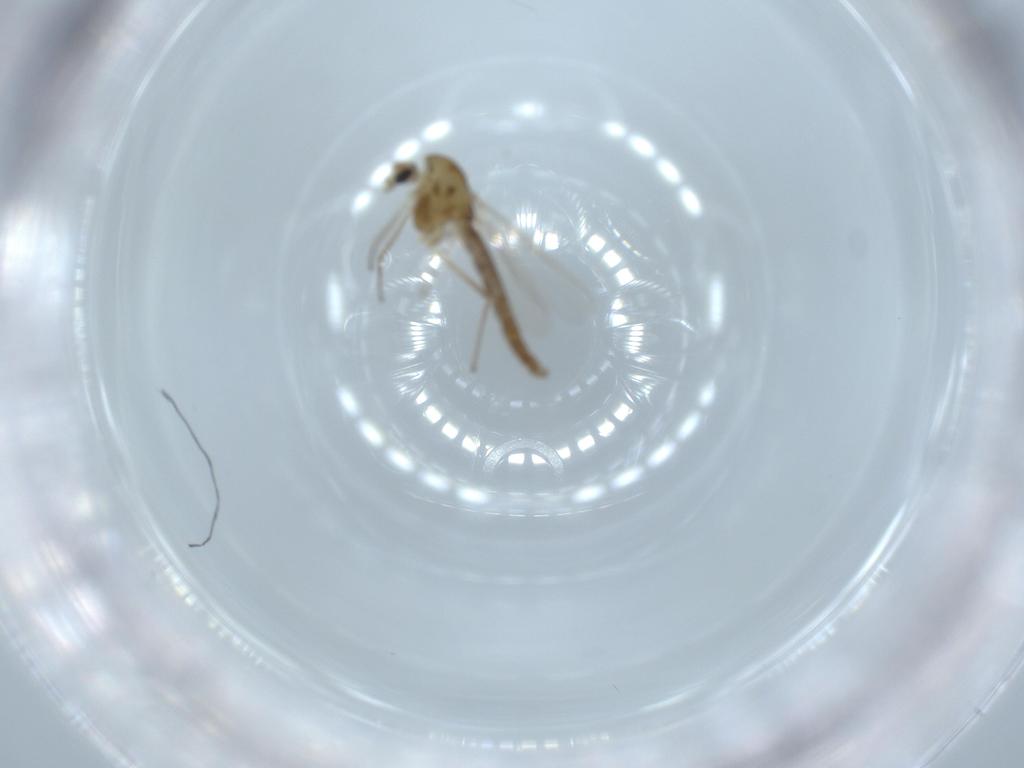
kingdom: Animalia
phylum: Arthropoda
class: Insecta
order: Diptera
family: Chironomidae
